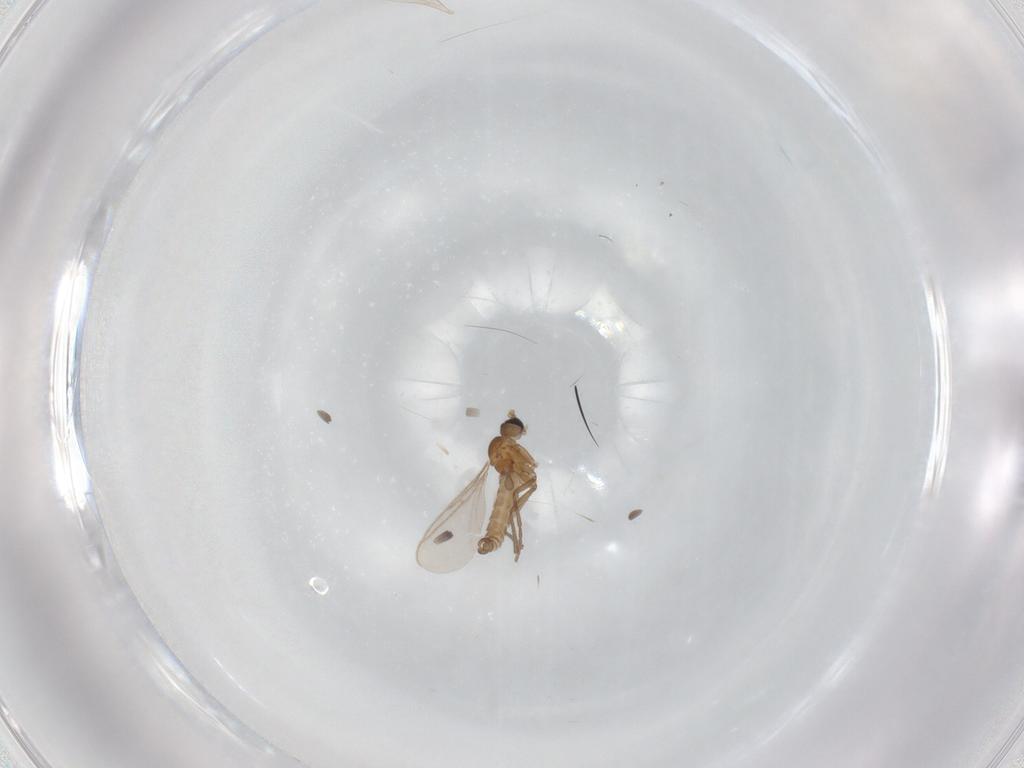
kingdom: Animalia
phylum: Arthropoda
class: Insecta
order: Diptera
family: Sciaridae
